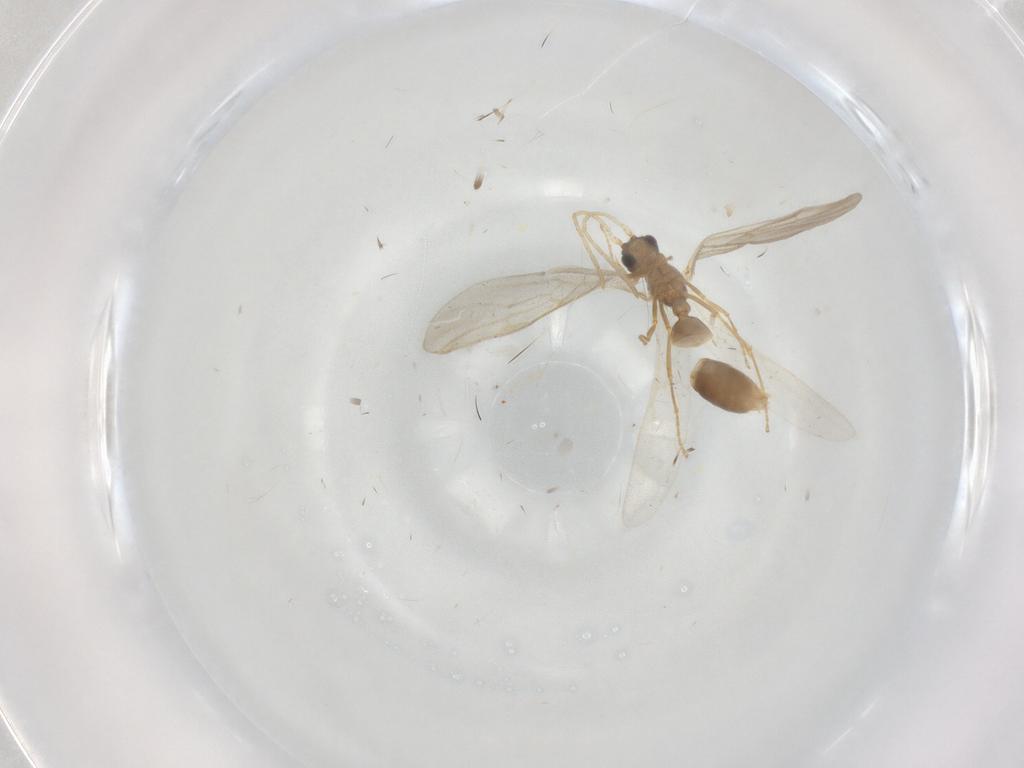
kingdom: Animalia
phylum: Arthropoda
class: Insecta
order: Hymenoptera
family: Formicidae
